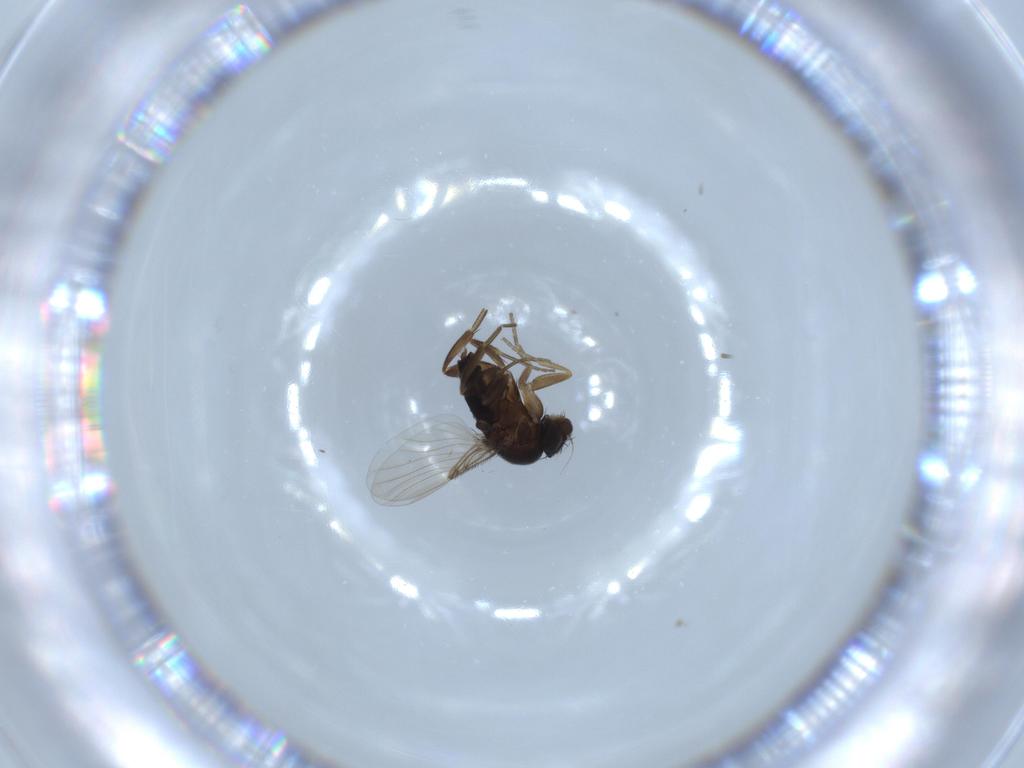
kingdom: Animalia
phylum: Arthropoda
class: Insecta
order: Diptera
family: Phoridae
